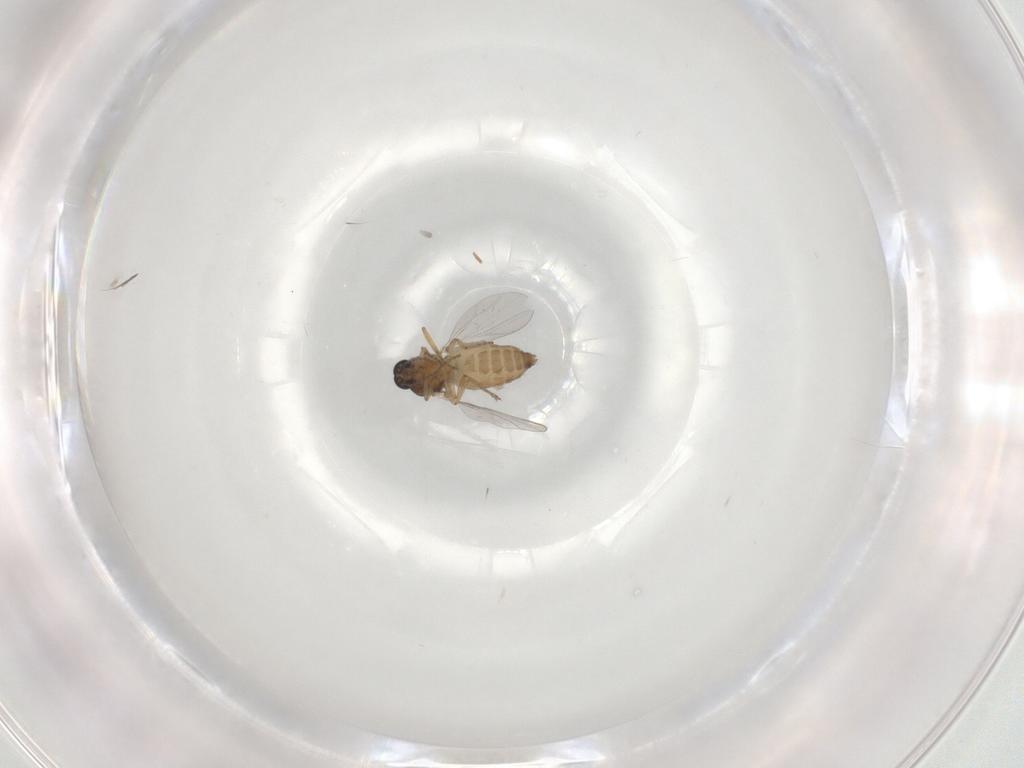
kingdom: Animalia
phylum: Arthropoda
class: Insecta
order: Diptera
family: Ceratopogonidae
